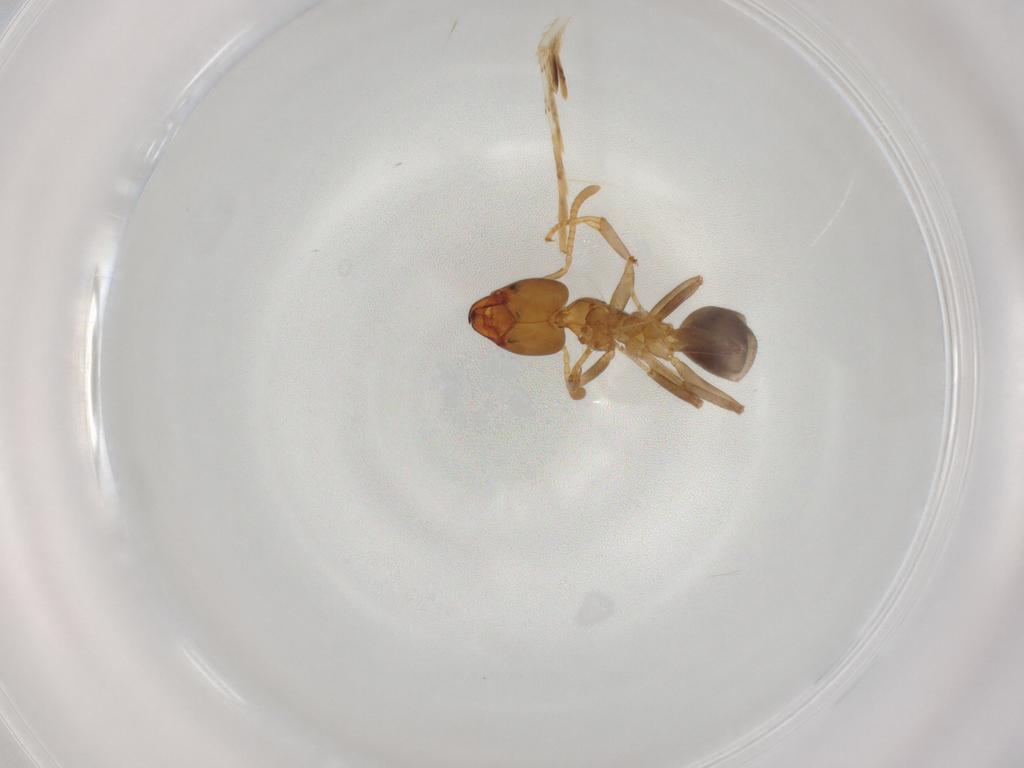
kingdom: Animalia
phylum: Arthropoda
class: Insecta
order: Hymenoptera
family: Formicidae
